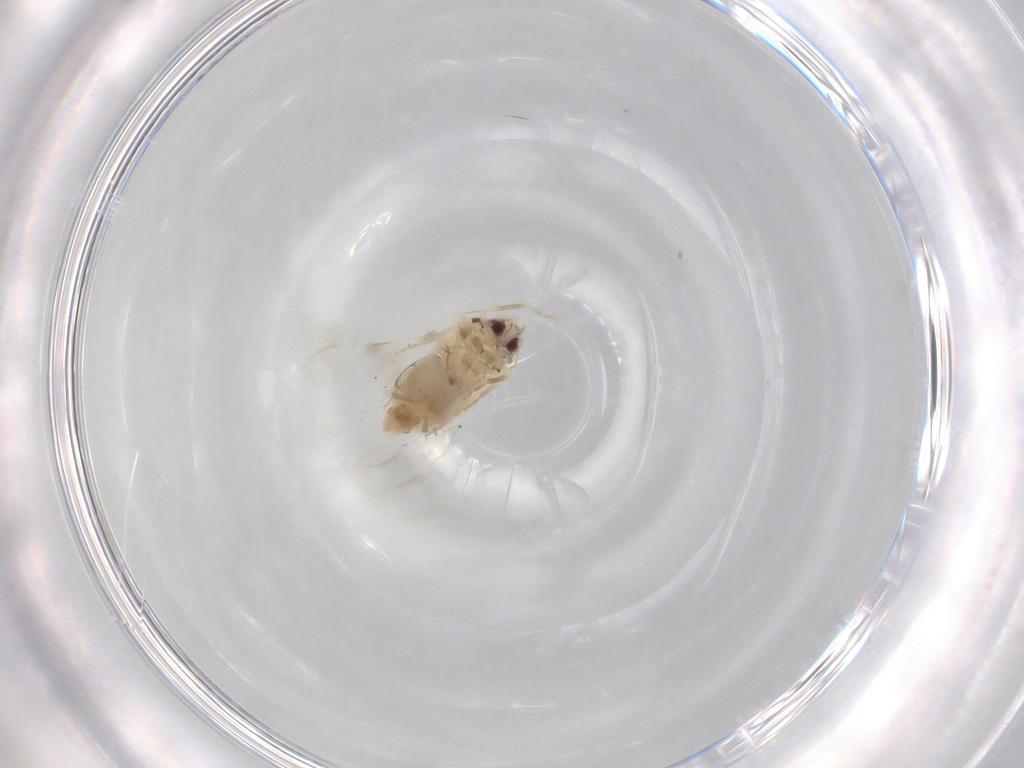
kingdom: Animalia
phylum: Arthropoda
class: Insecta
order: Hemiptera
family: Aleyrodidae
